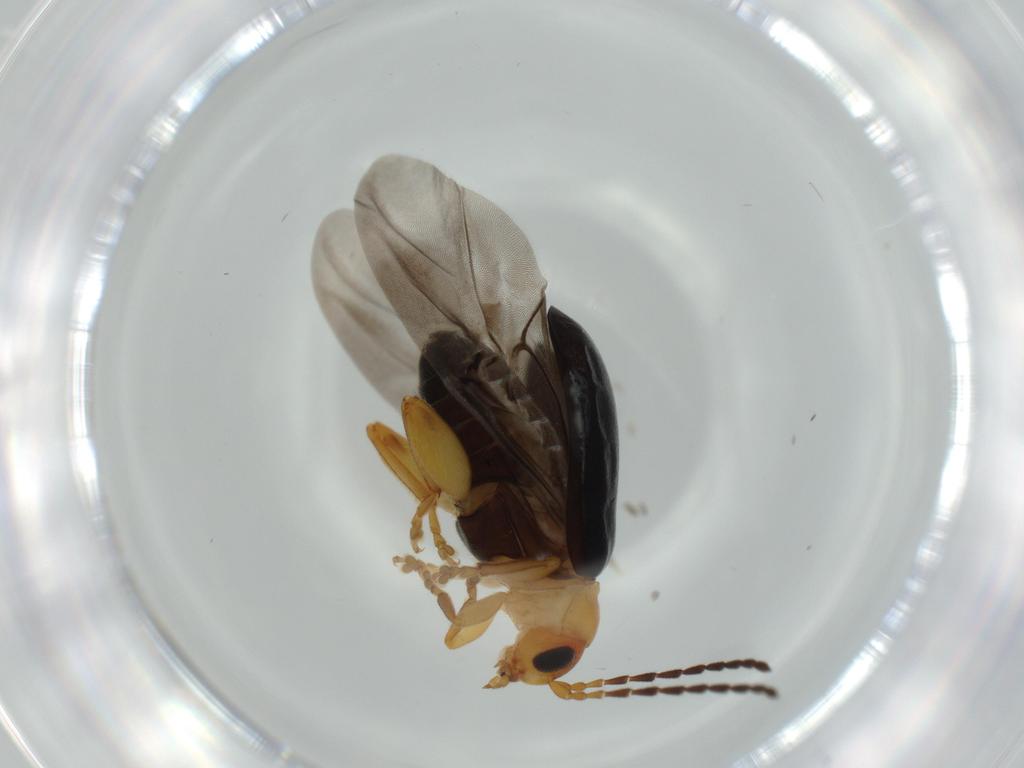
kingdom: Animalia
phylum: Arthropoda
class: Insecta
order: Coleoptera
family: Chrysomelidae
